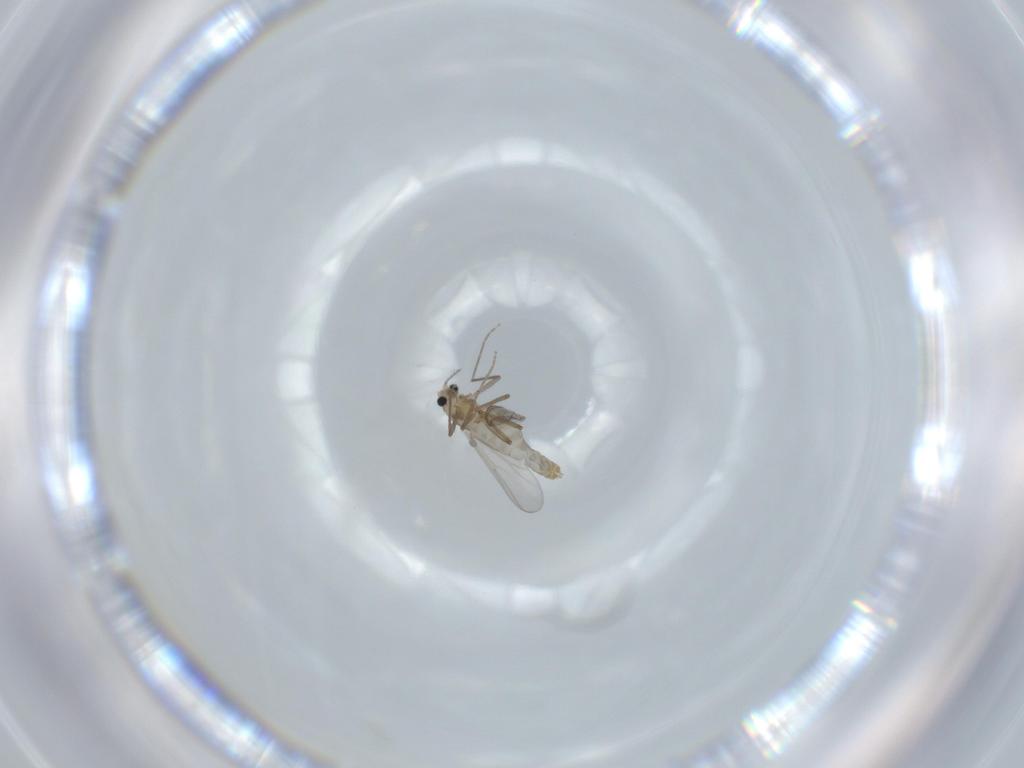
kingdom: Animalia
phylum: Arthropoda
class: Insecta
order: Diptera
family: Chironomidae
